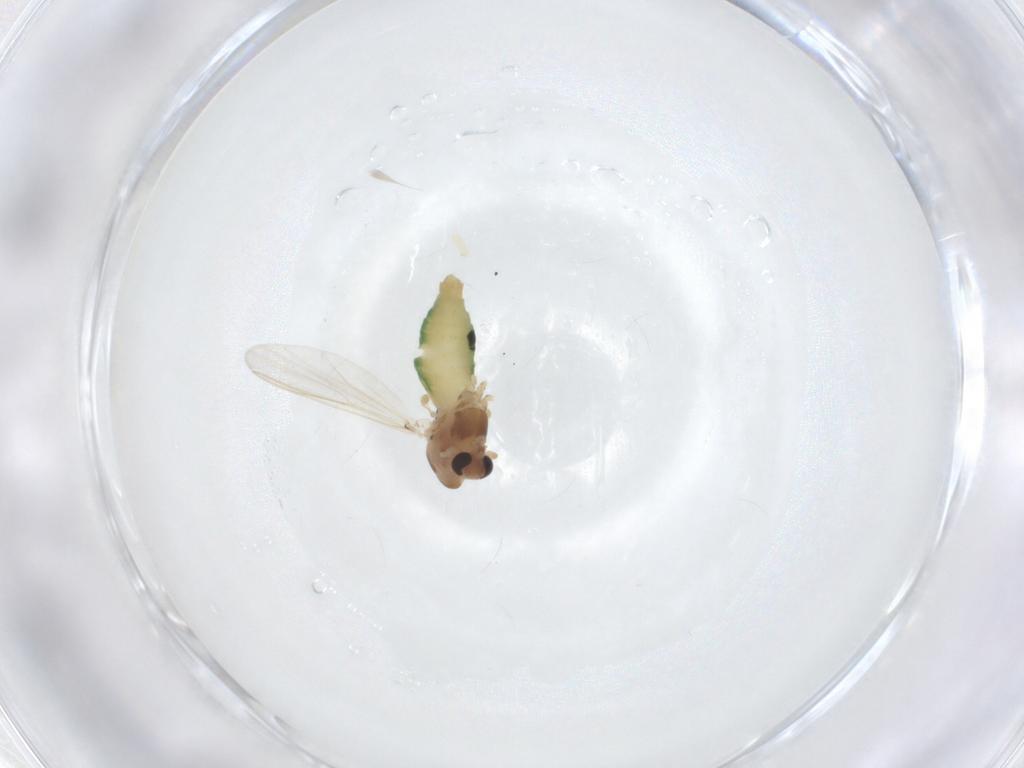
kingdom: Animalia
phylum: Arthropoda
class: Insecta
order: Diptera
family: Chironomidae
